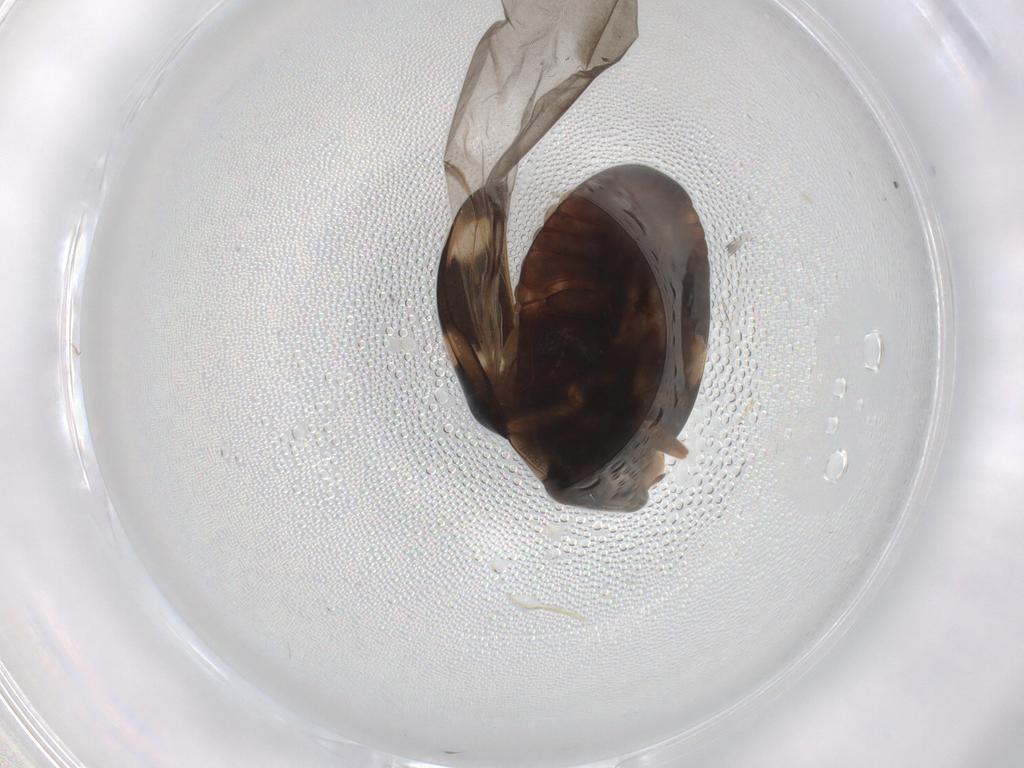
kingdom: Animalia
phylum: Arthropoda
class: Insecta
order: Coleoptera
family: Coccinellidae
